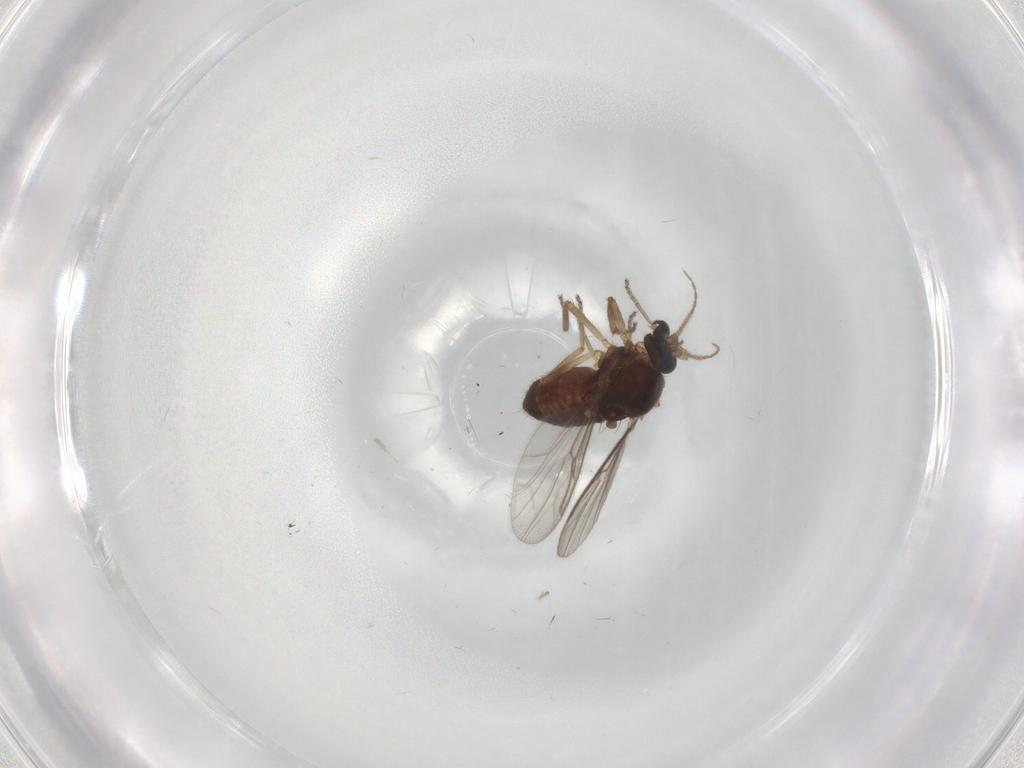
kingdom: Animalia
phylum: Arthropoda
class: Insecta
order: Diptera
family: Ceratopogonidae
